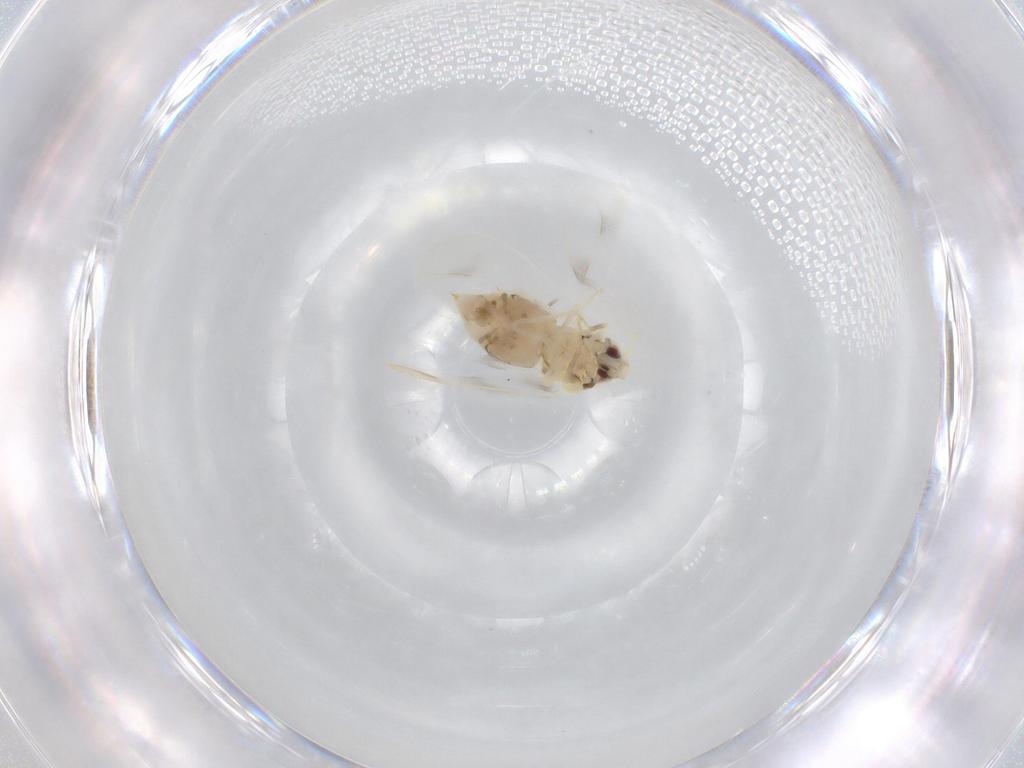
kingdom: Animalia
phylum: Arthropoda
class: Insecta
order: Hemiptera
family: Aleyrodidae
